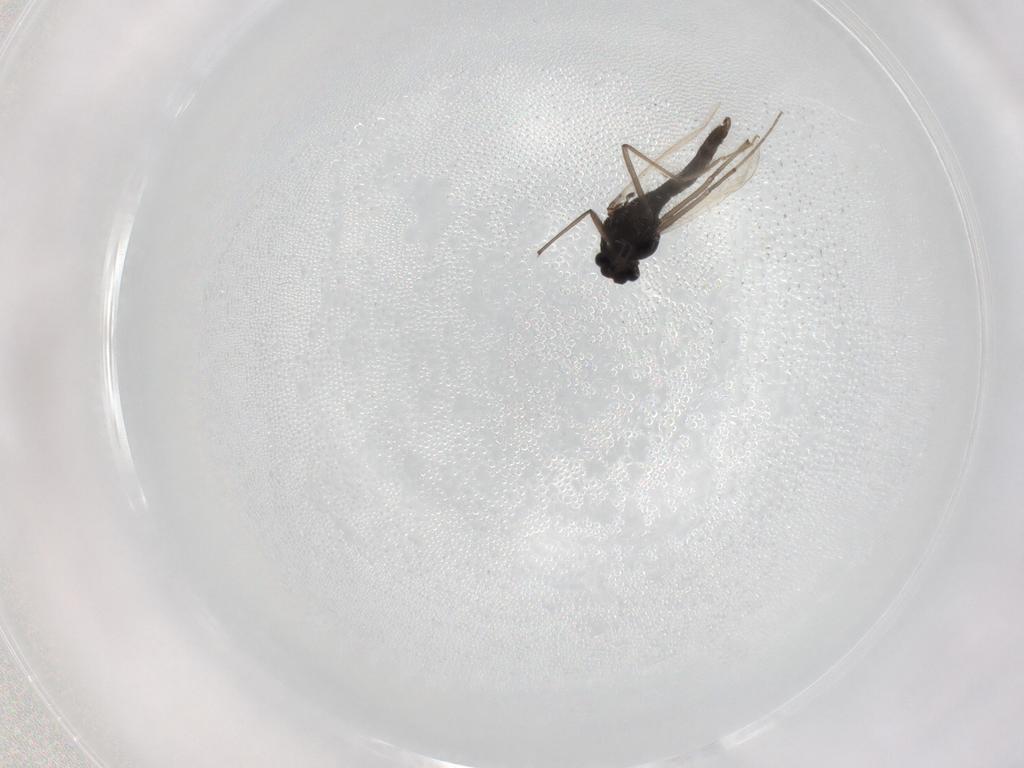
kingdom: Animalia
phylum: Arthropoda
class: Insecta
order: Diptera
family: Chironomidae
